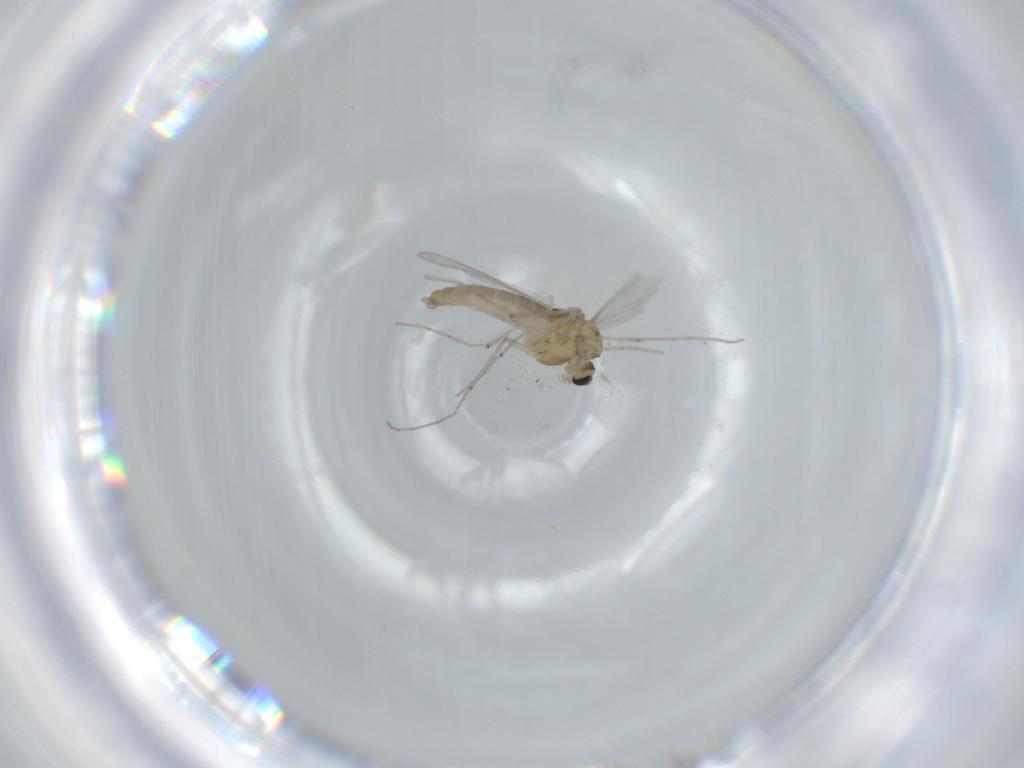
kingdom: Animalia
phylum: Arthropoda
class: Insecta
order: Diptera
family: Chironomidae
